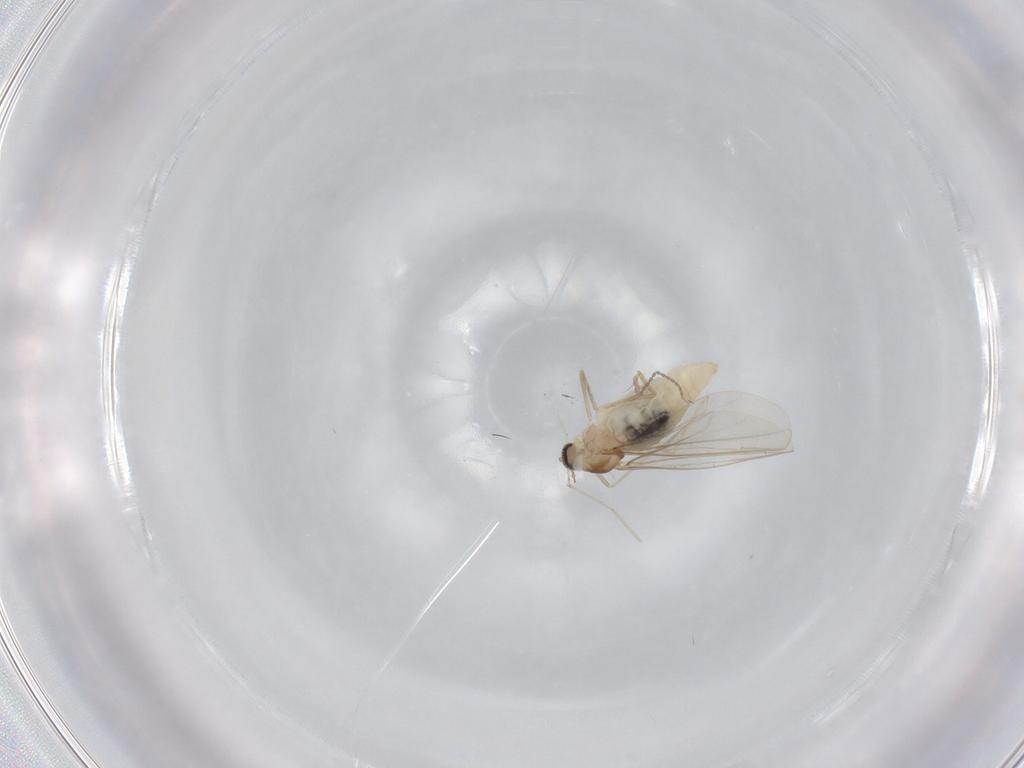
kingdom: Animalia
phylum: Arthropoda
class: Insecta
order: Diptera
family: Cecidomyiidae
